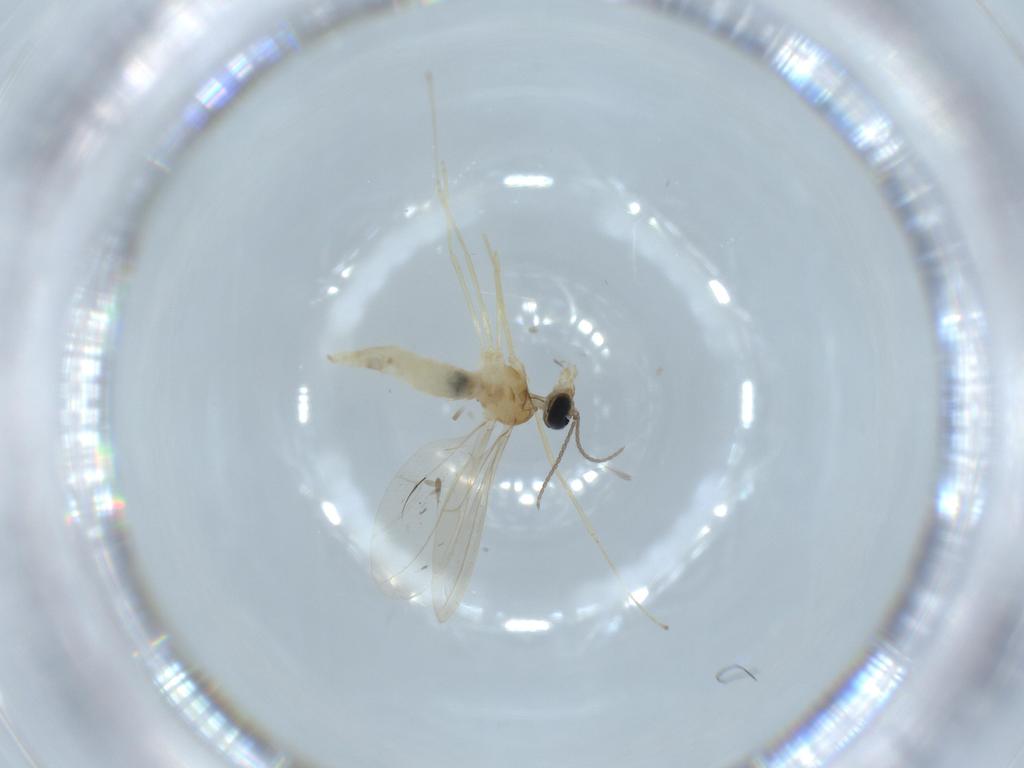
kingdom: Animalia
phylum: Arthropoda
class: Insecta
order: Diptera
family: Cecidomyiidae
